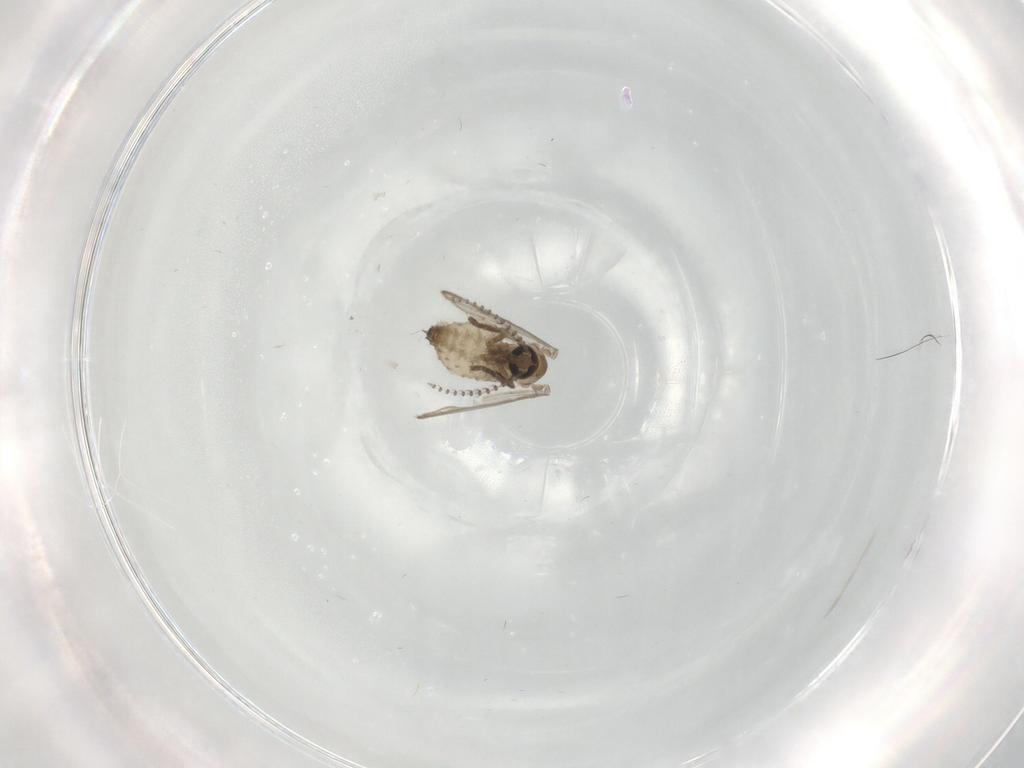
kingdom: Animalia
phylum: Arthropoda
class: Insecta
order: Diptera
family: Psychodidae
